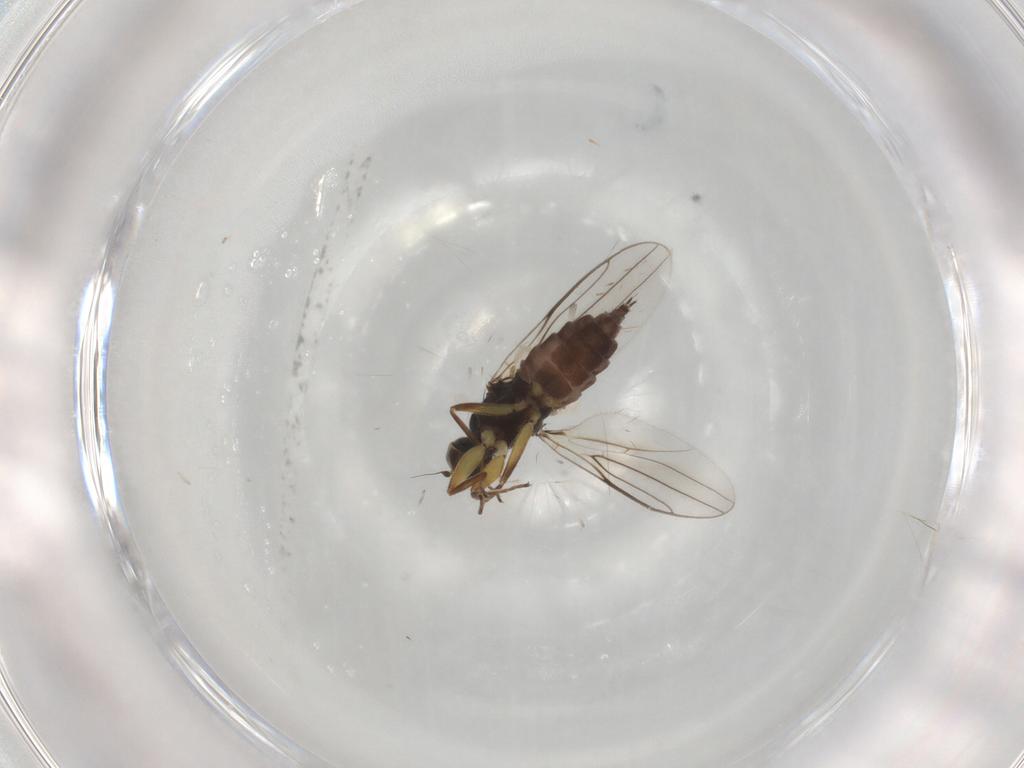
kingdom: Animalia
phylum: Arthropoda
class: Insecta
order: Diptera
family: Hybotidae
